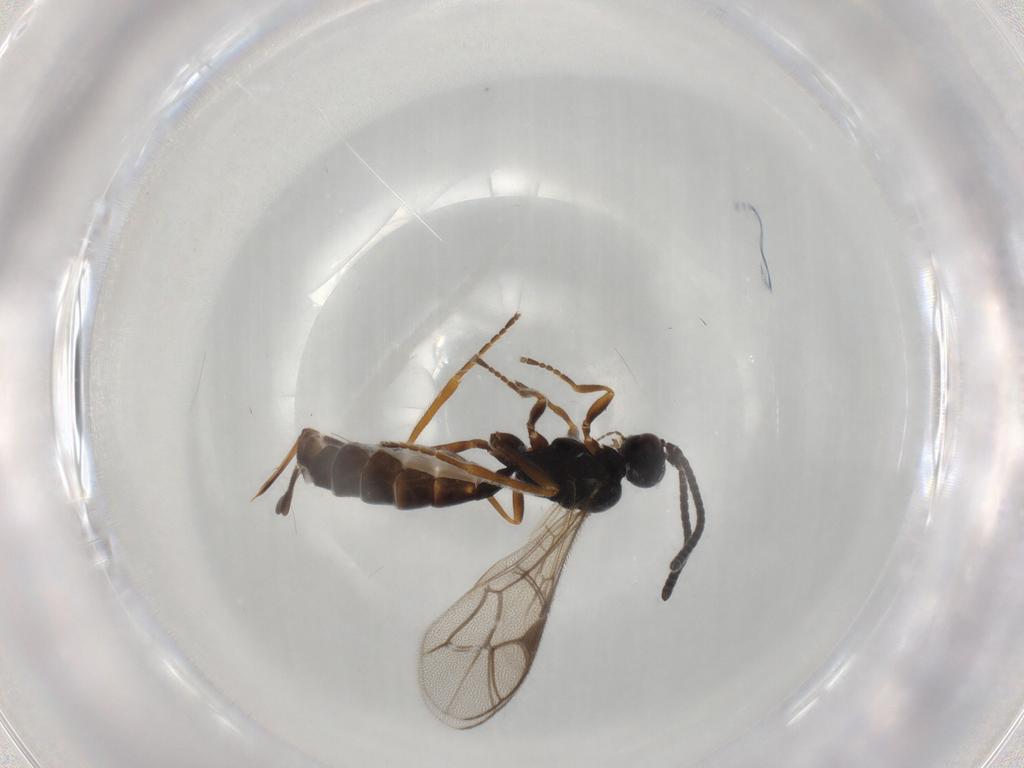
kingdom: Animalia
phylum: Arthropoda
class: Insecta
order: Hymenoptera
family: Ichneumonidae
